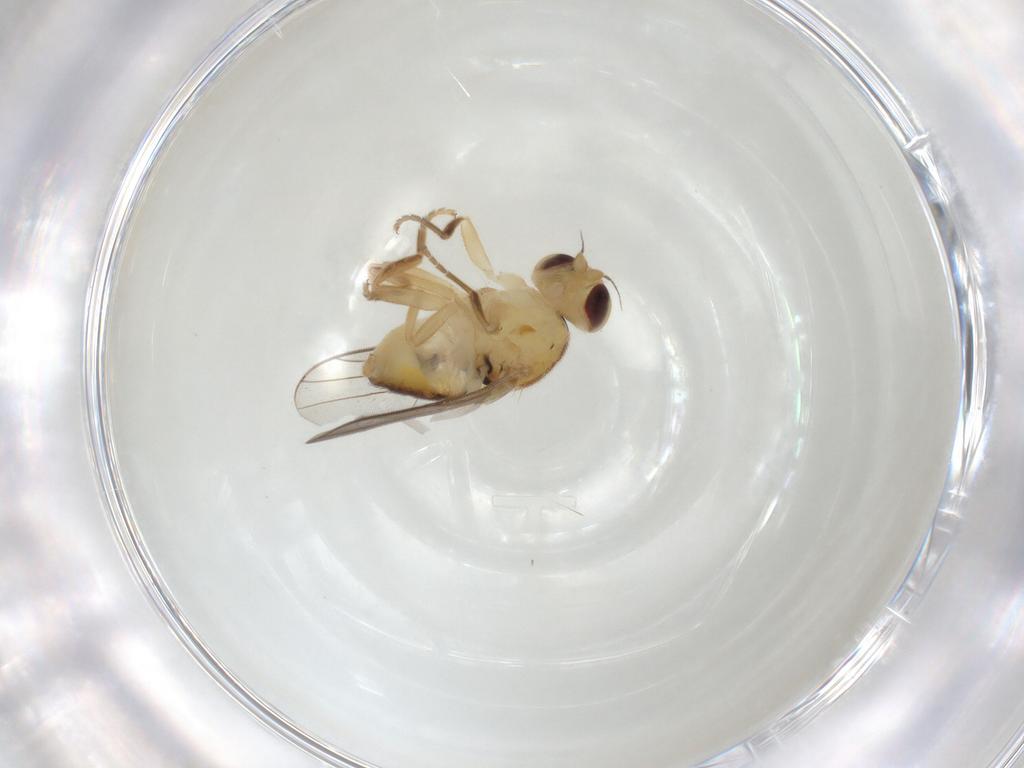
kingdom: Animalia
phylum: Arthropoda
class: Insecta
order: Diptera
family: Chloropidae
